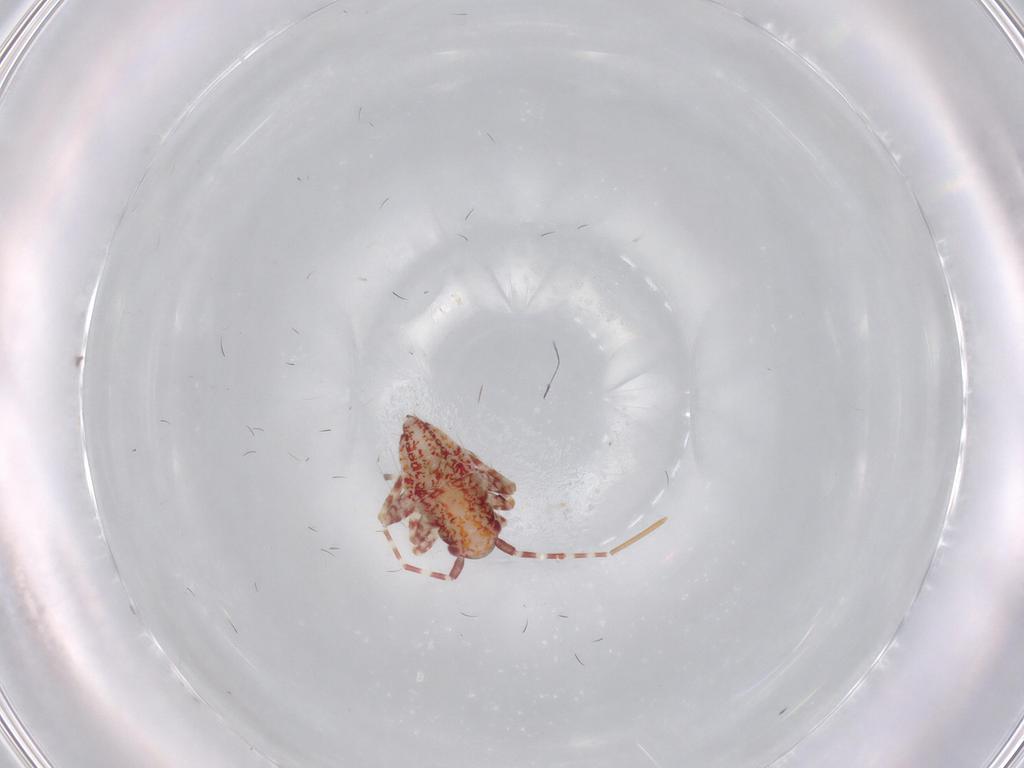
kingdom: Animalia
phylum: Arthropoda
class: Insecta
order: Hemiptera
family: Miridae
